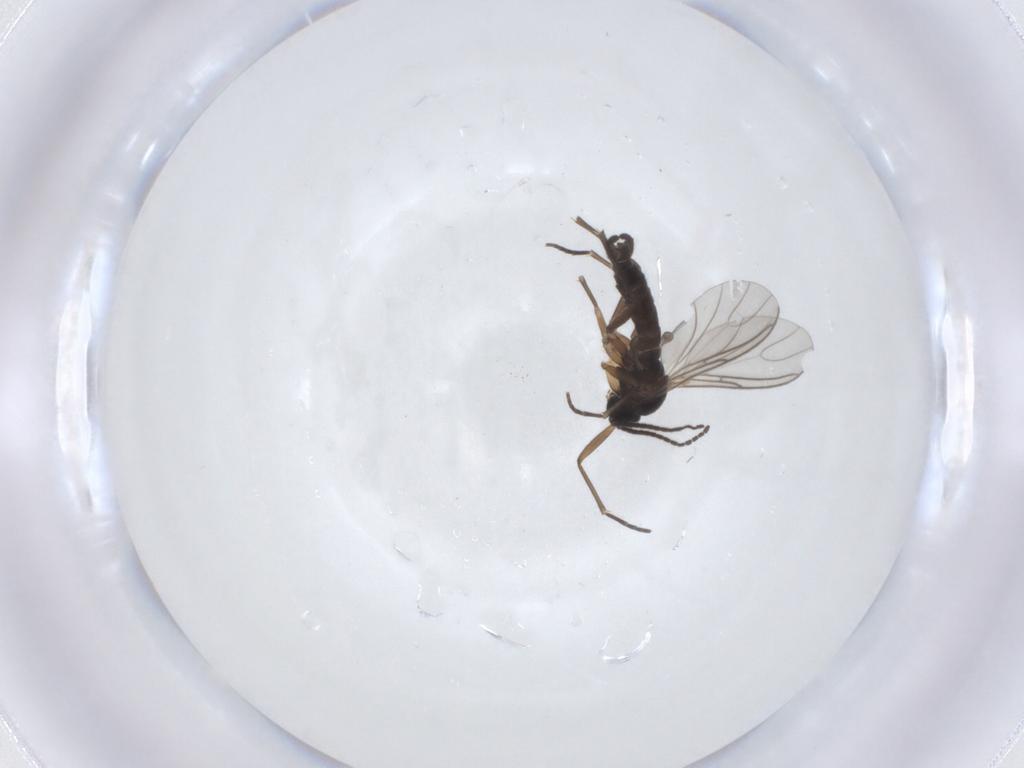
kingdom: Animalia
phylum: Arthropoda
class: Insecta
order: Diptera
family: Sciaridae
